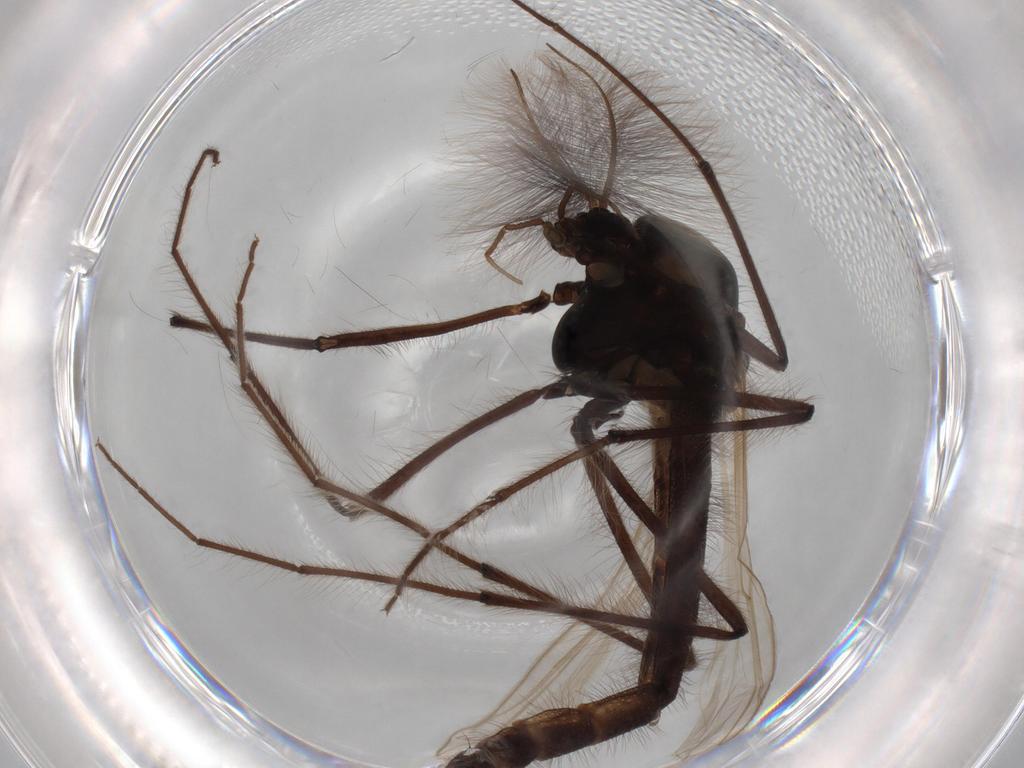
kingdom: Animalia
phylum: Arthropoda
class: Insecta
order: Diptera
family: Chironomidae
